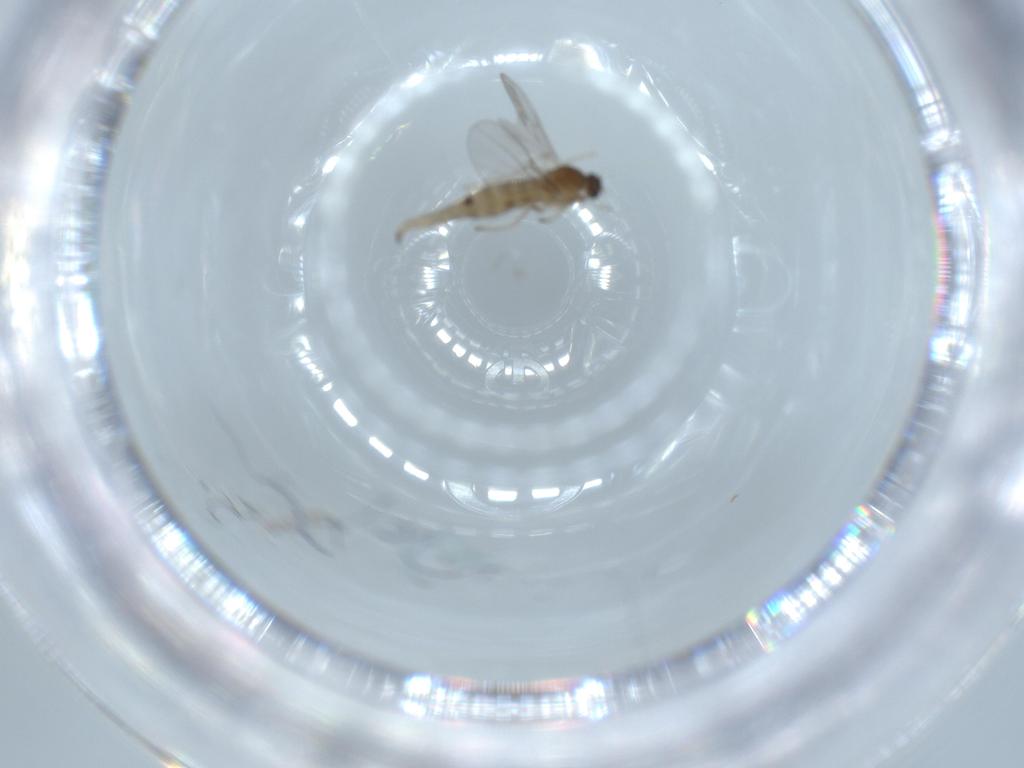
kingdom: Animalia
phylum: Arthropoda
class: Insecta
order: Diptera
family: Cecidomyiidae
